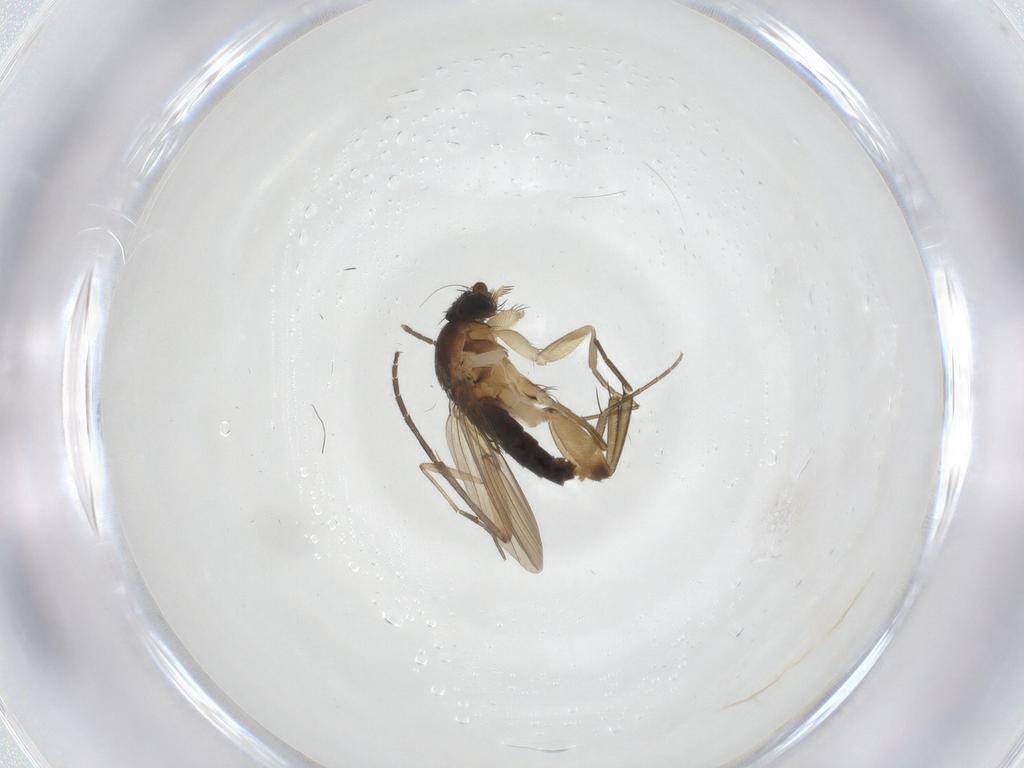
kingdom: Animalia
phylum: Arthropoda
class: Insecta
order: Diptera
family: Phoridae
